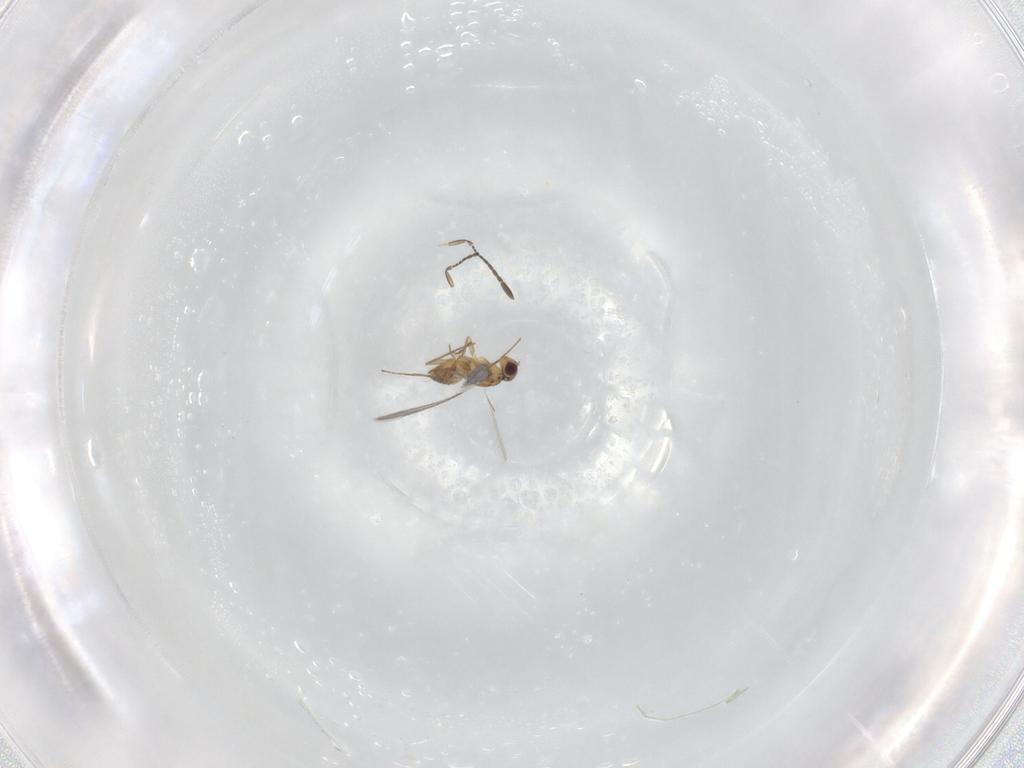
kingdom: Animalia
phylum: Arthropoda
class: Insecta
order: Hymenoptera
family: Mymaridae
